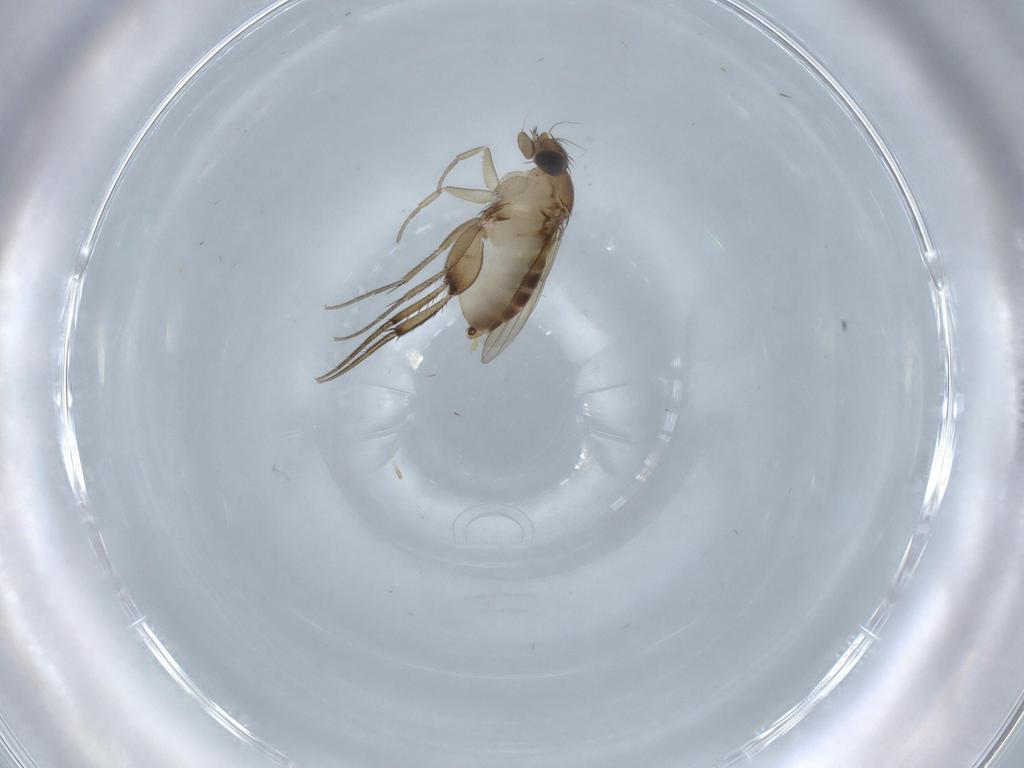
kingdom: Animalia
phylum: Arthropoda
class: Insecta
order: Diptera
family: Phoridae
